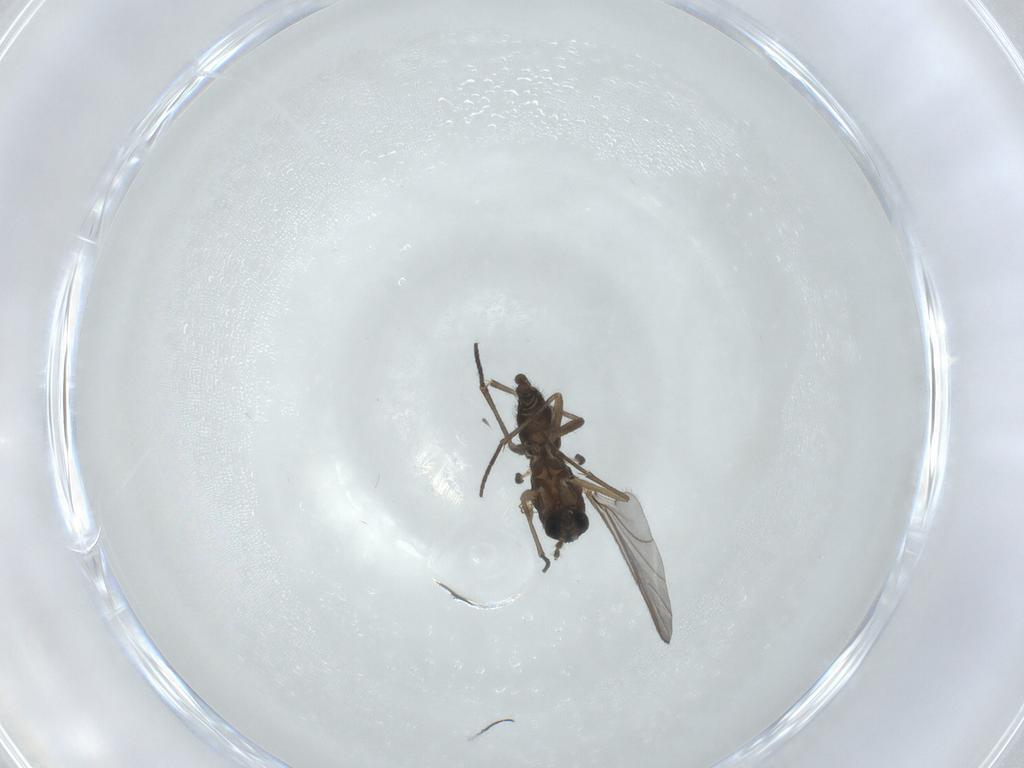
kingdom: Animalia
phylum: Arthropoda
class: Insecta
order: Diptera
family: Sciaridae
